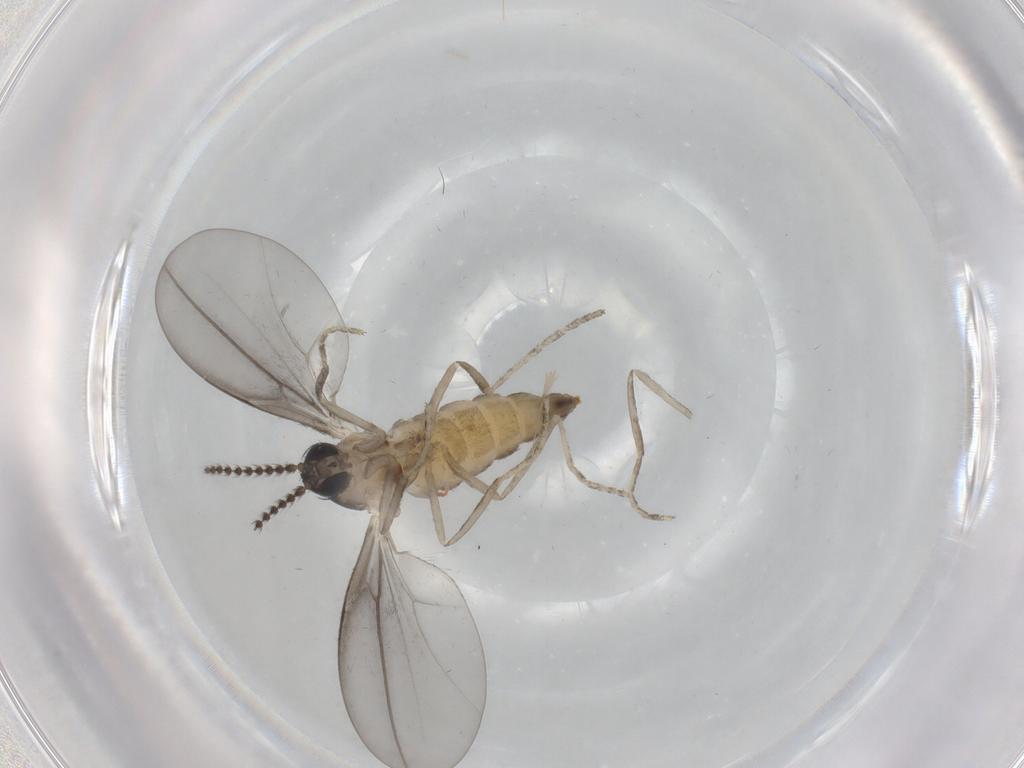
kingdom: Animalia
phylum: Arthropoda
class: Insecta
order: Diptera
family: Cecidomyiidae
